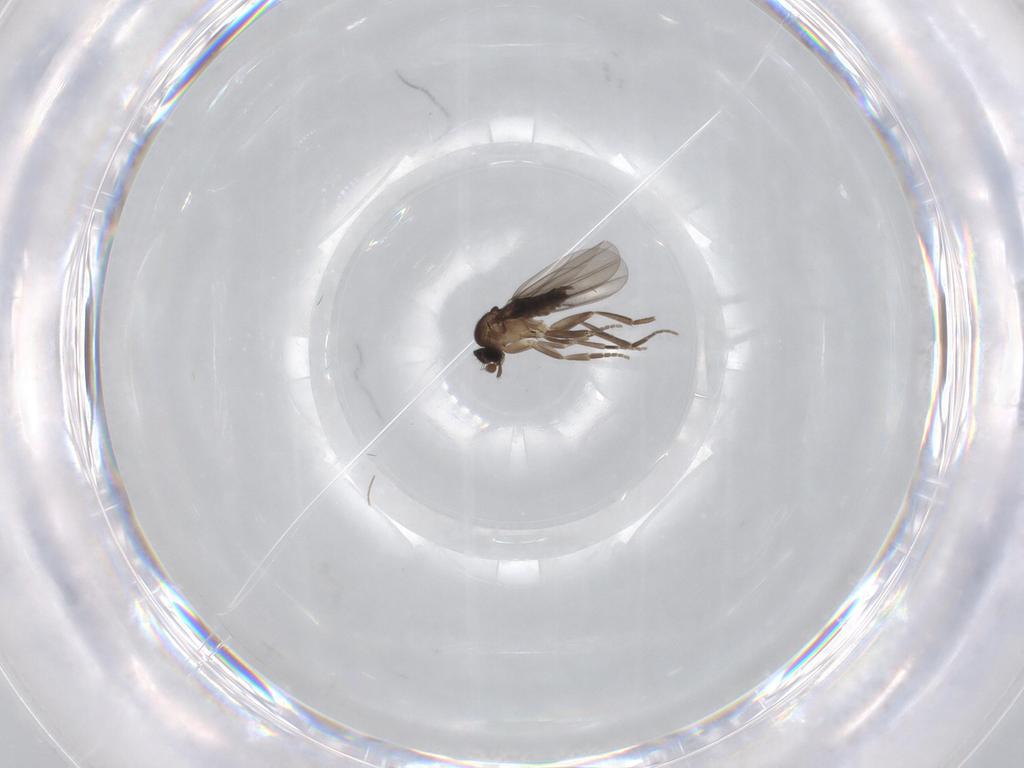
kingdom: Animalia
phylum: Arthropoda
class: Insecta
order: Diptera
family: Phoridae
